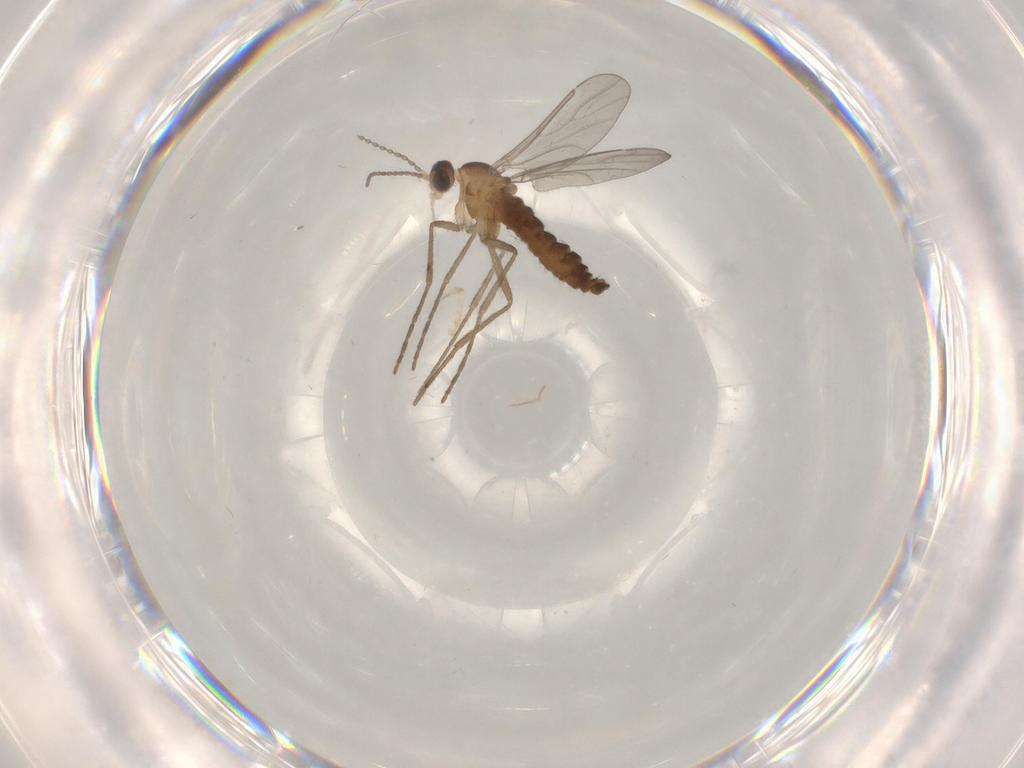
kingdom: Animalia
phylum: Arthropoda
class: Insecta
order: Diptera
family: Cecidomyiidae
